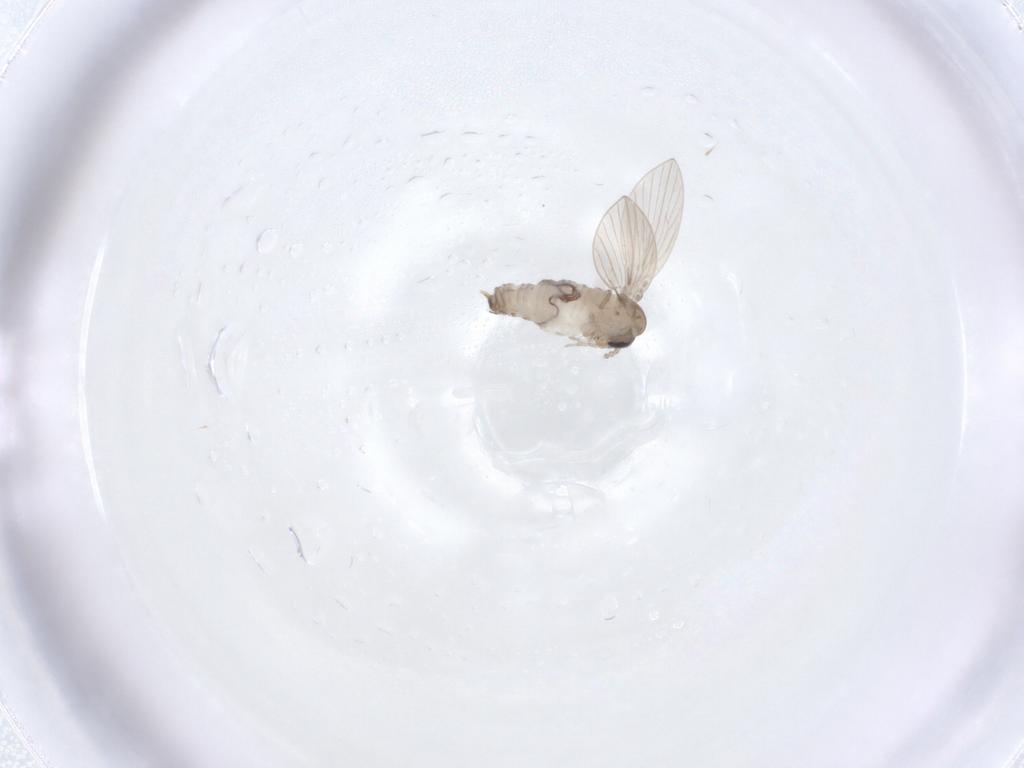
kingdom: Animalia
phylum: Arthropoda
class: Insecta
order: Diptera
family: Psychodidae
